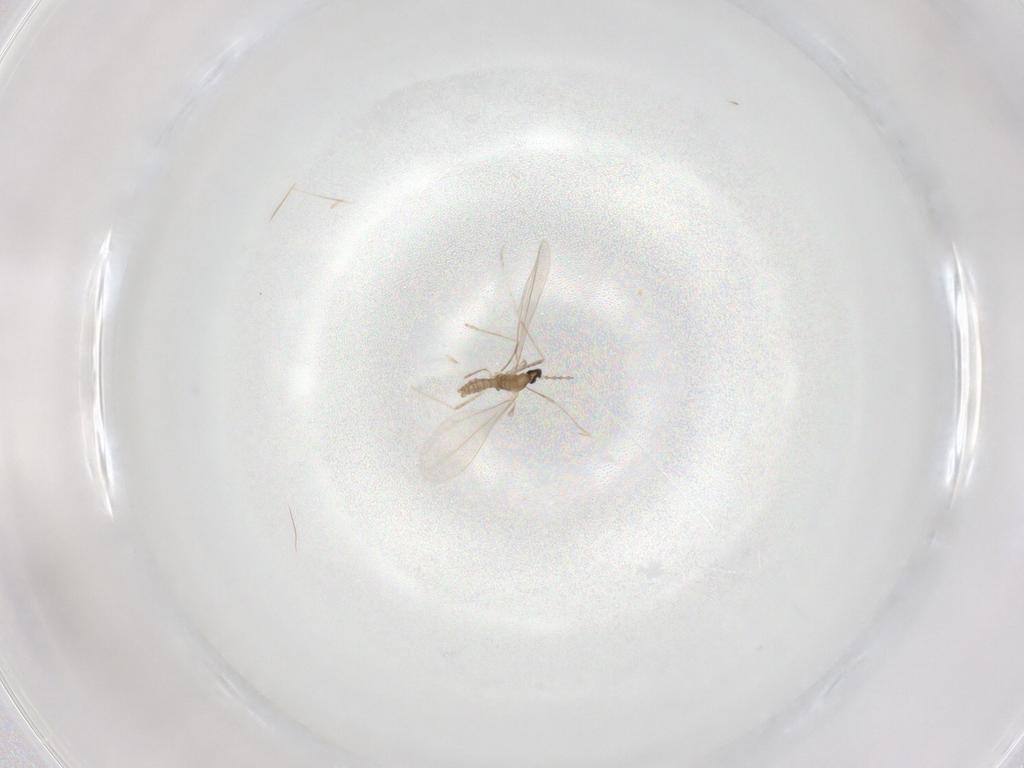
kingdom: Animalia
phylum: Arthropoda
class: Insecta
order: Diptera
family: Cecidomyiidae
